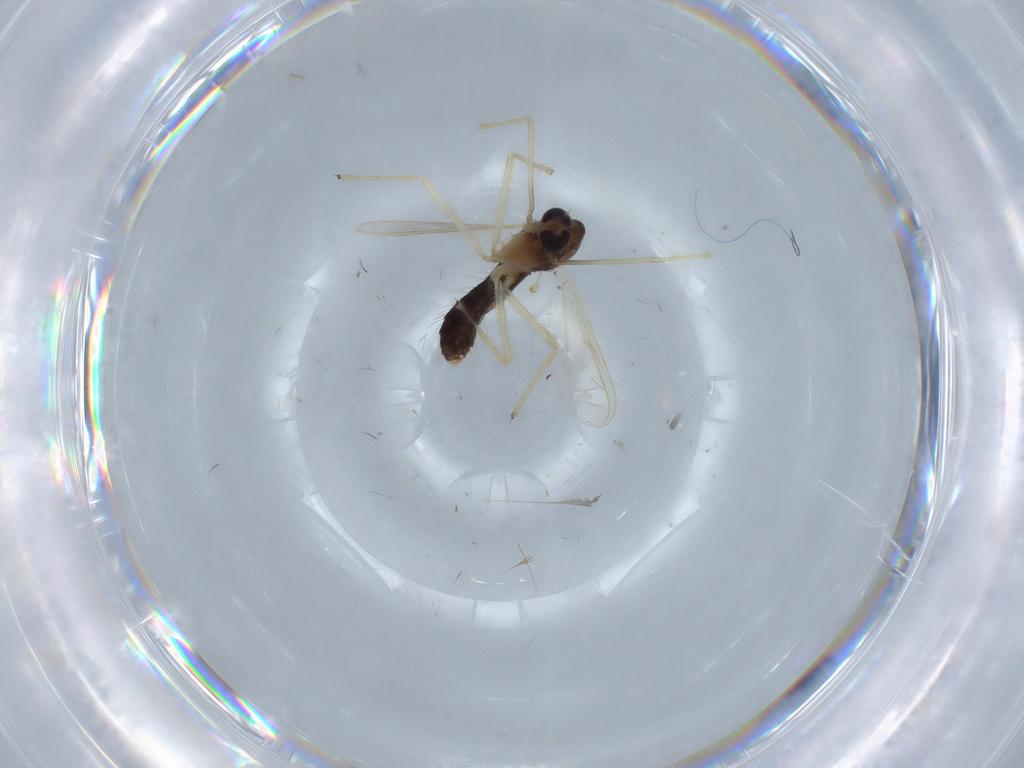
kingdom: Animalia
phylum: Arthropoda
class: Insecta
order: Diptera
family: Chironomidae
